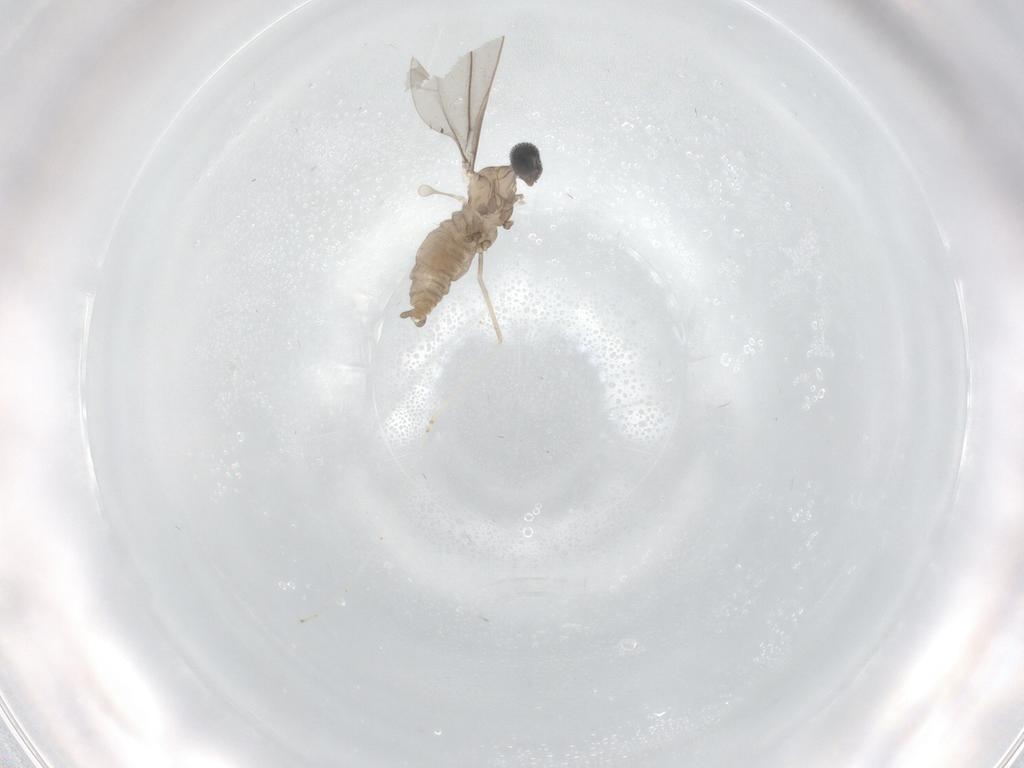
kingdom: Animalia
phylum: Arthropoda
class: Insecta
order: Diptera
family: Chironomidae
